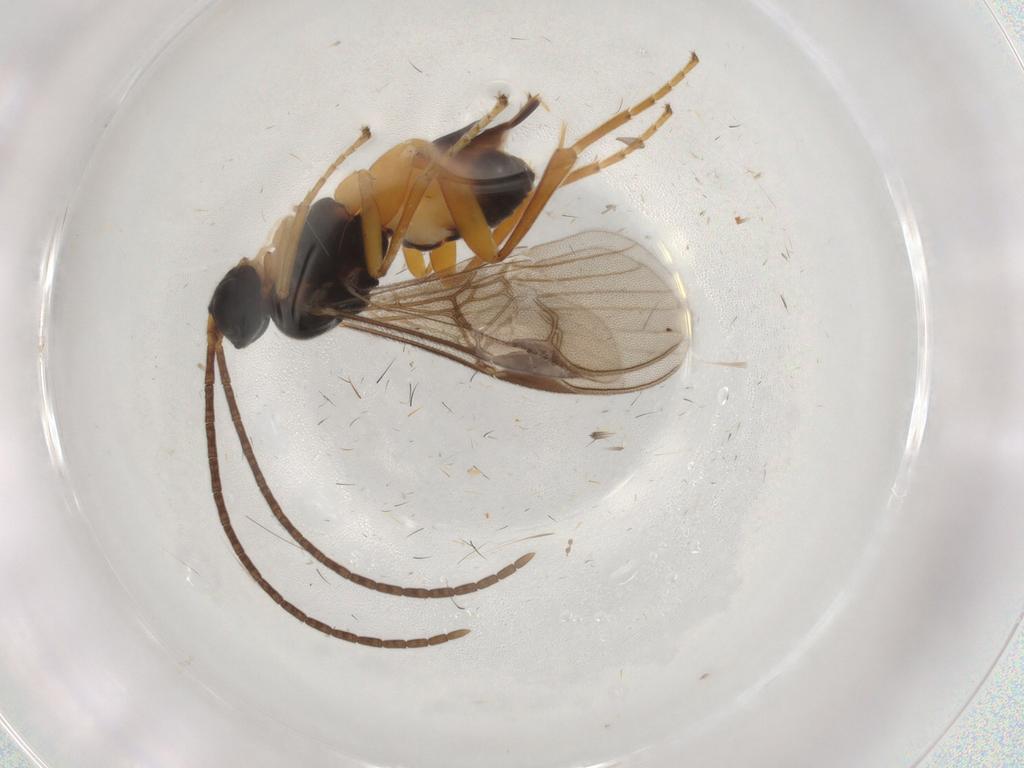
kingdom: Animalia
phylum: Arthropoda
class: Insecta
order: Hymenoptera
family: Braconidae
